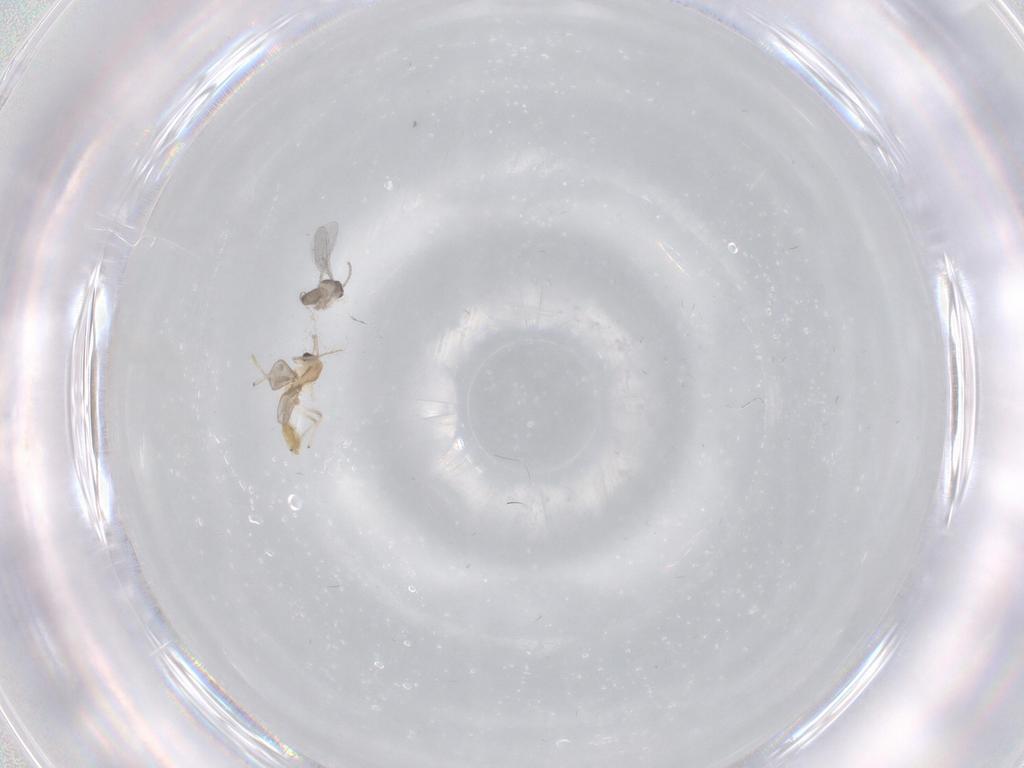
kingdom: Animalia
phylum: Arthropoda
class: Insecta
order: Diptera
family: Chironomidae
